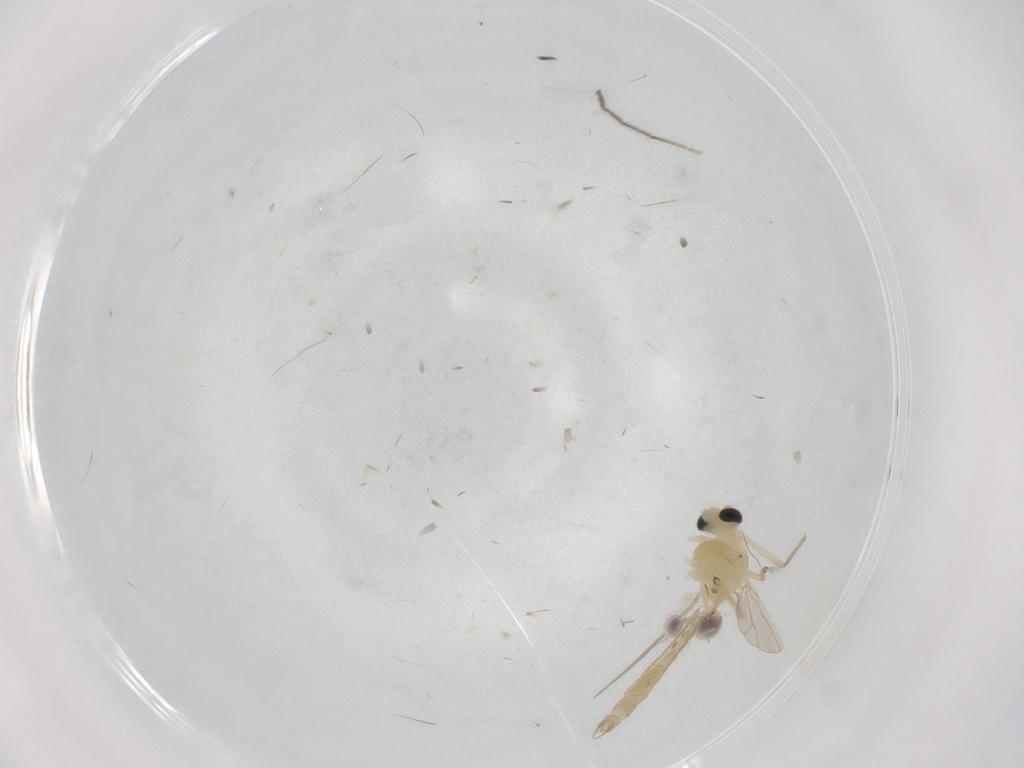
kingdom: Animalia
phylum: Arthropoda
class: Insecta
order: Diptera
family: Chironomidae
